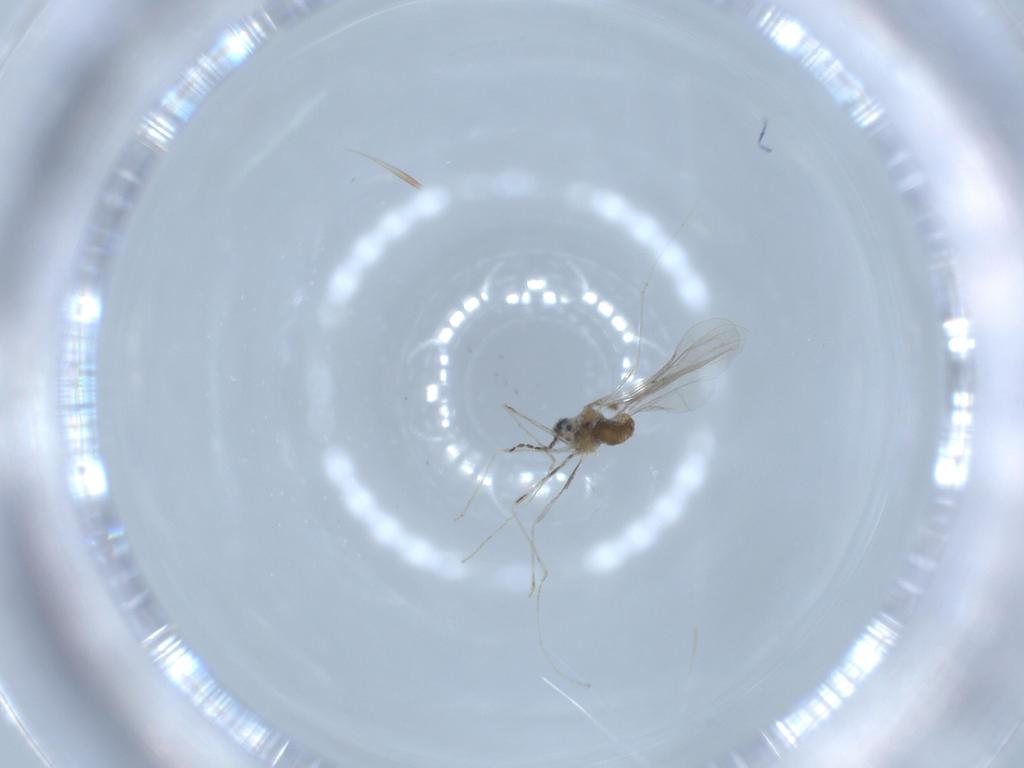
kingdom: Animalia
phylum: Arthropoda
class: Insecta
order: Diptera
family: Cecidomyiidae
